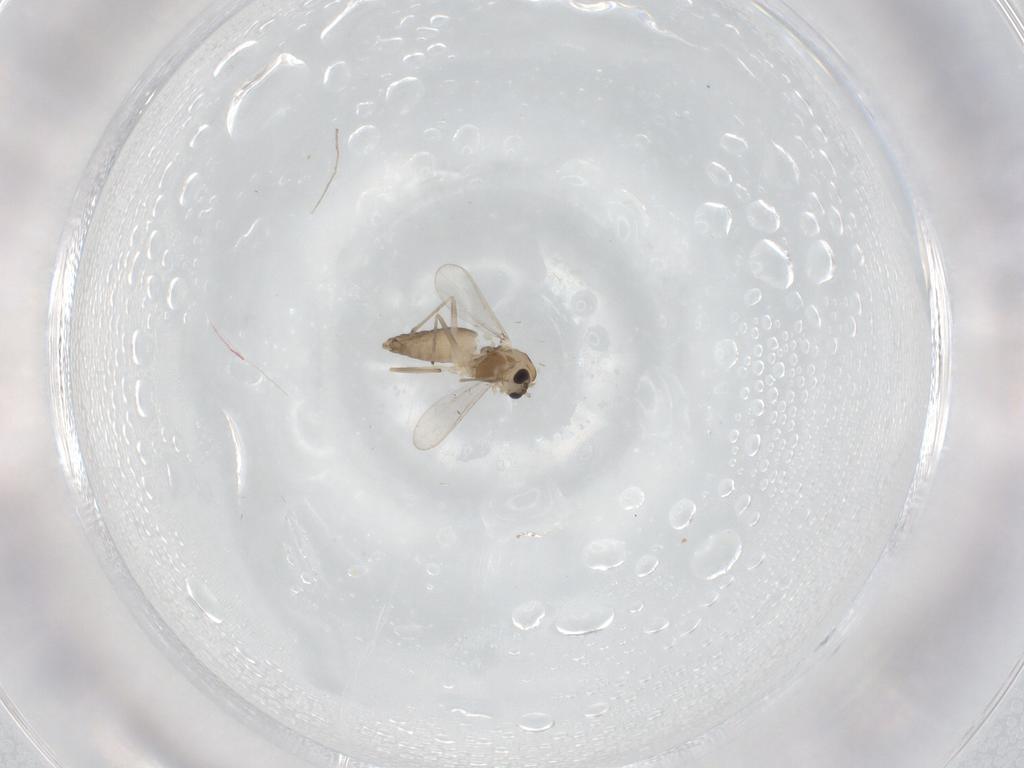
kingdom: Animalia
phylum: Arthropoda
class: Insecta
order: Diptera
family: Chironomidae
